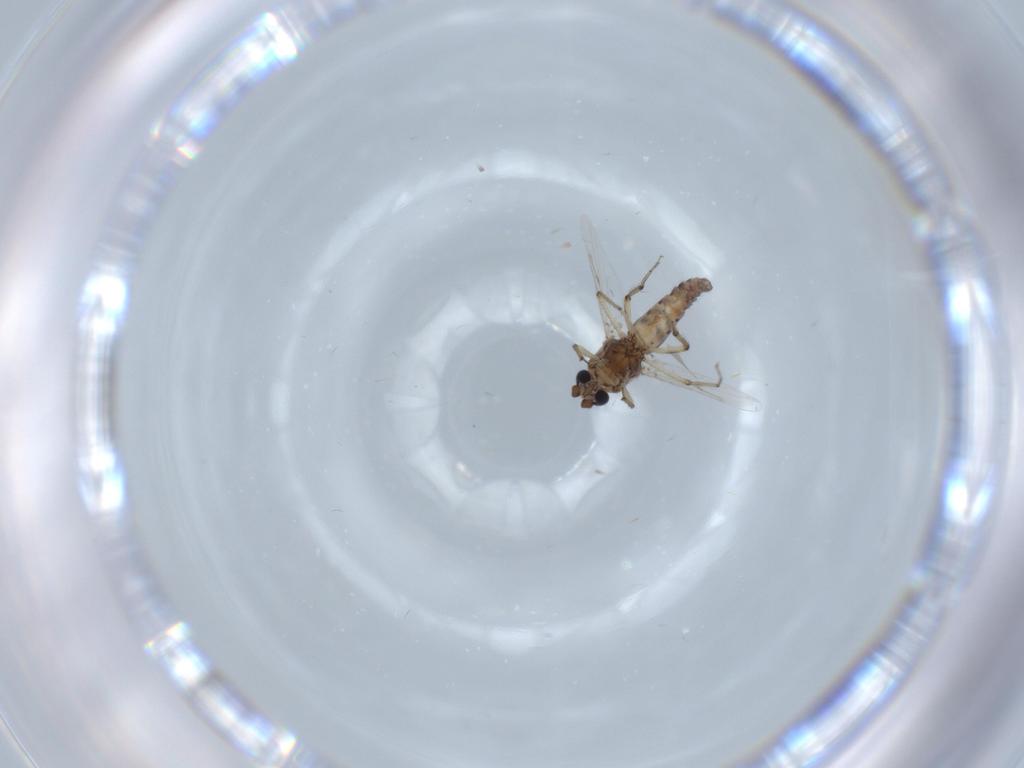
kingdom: Animalia
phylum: Arthropoda
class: Insecta
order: Diptera
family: Ceratopogonidae
